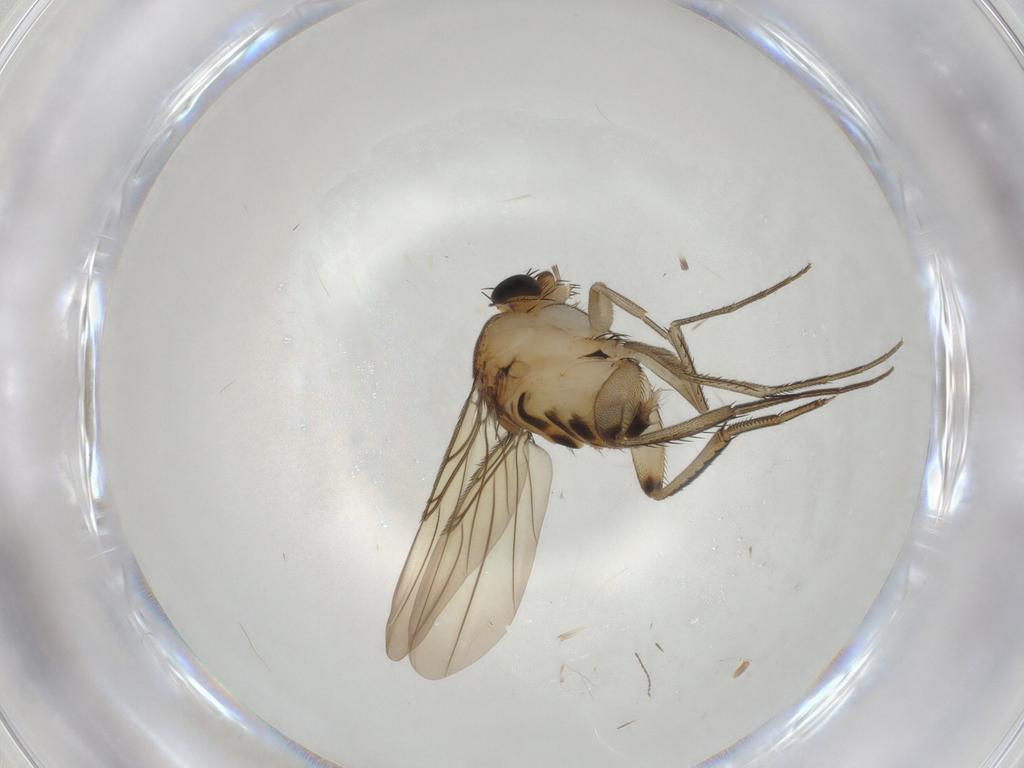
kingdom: Animalia
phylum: Arthropoda
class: Insecta
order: Diptera
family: Phoridae
